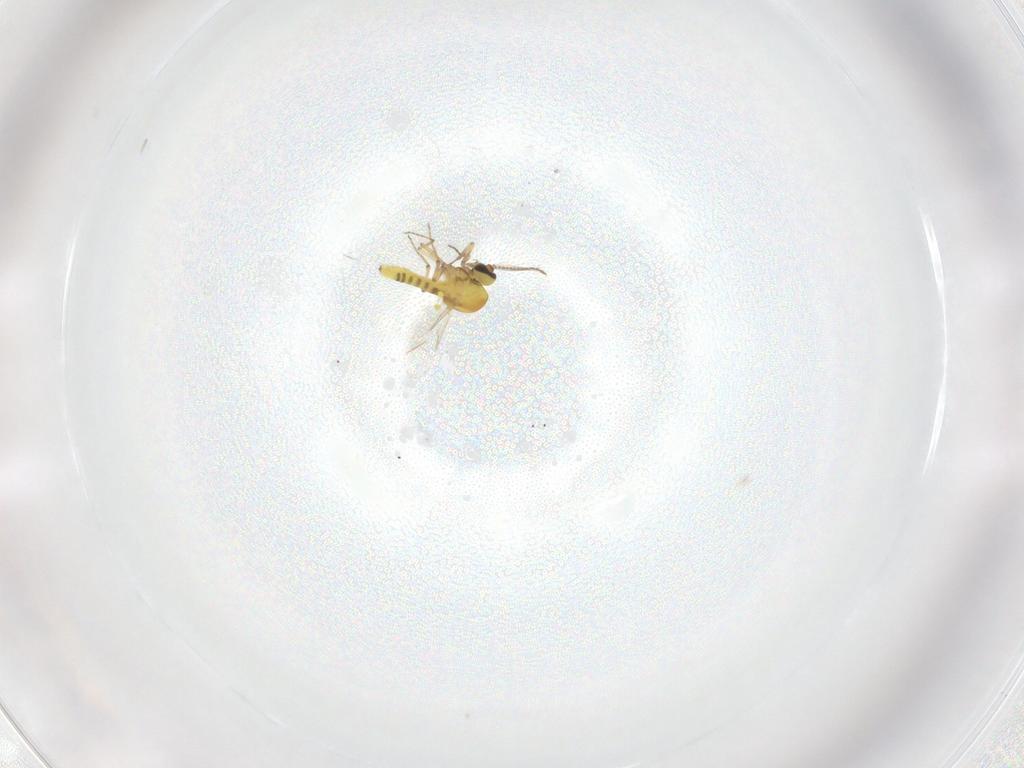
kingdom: Animalia
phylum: Arthropoda
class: Insecta
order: Diptera
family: Ceratopogonidae
